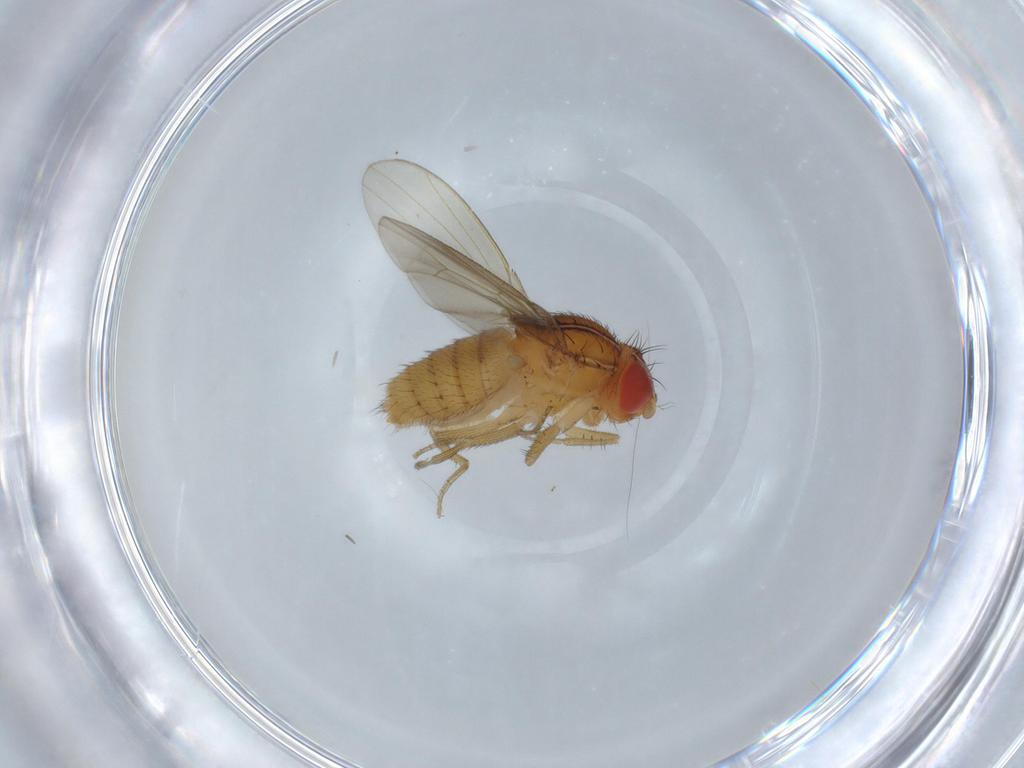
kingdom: Animalia
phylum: Arthropoda
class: Insecta
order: Diptera
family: Drosophilidae
